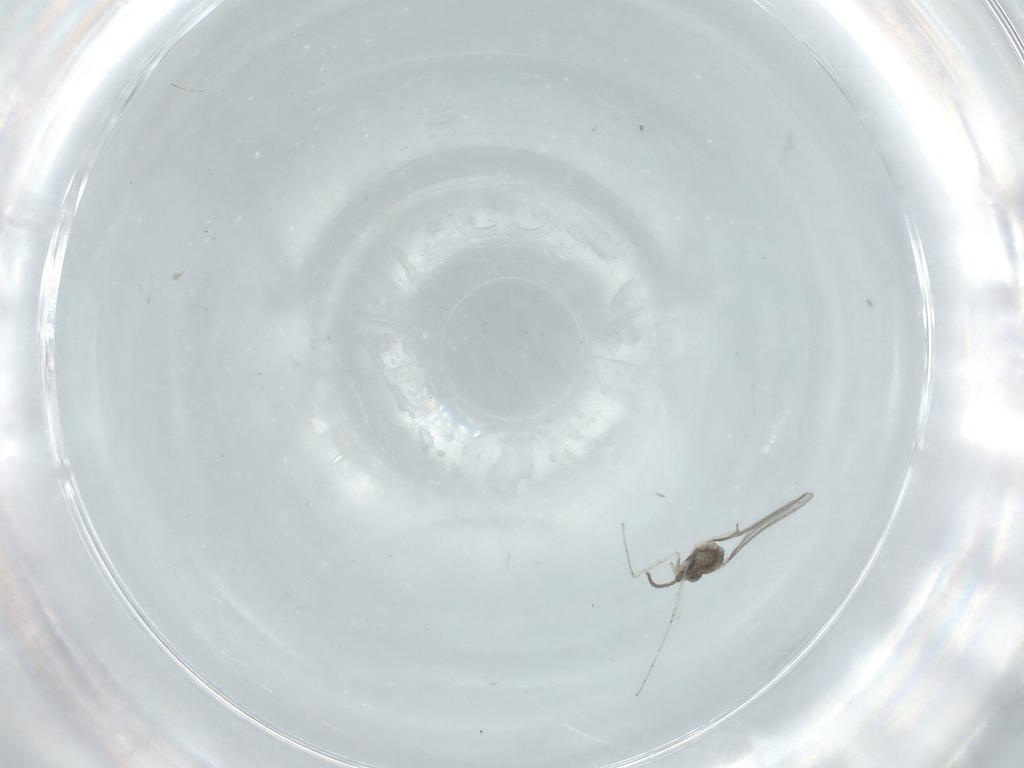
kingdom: Animalia
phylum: Arthropoda
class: Insecta
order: Diptera
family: Cecidomyiidae
